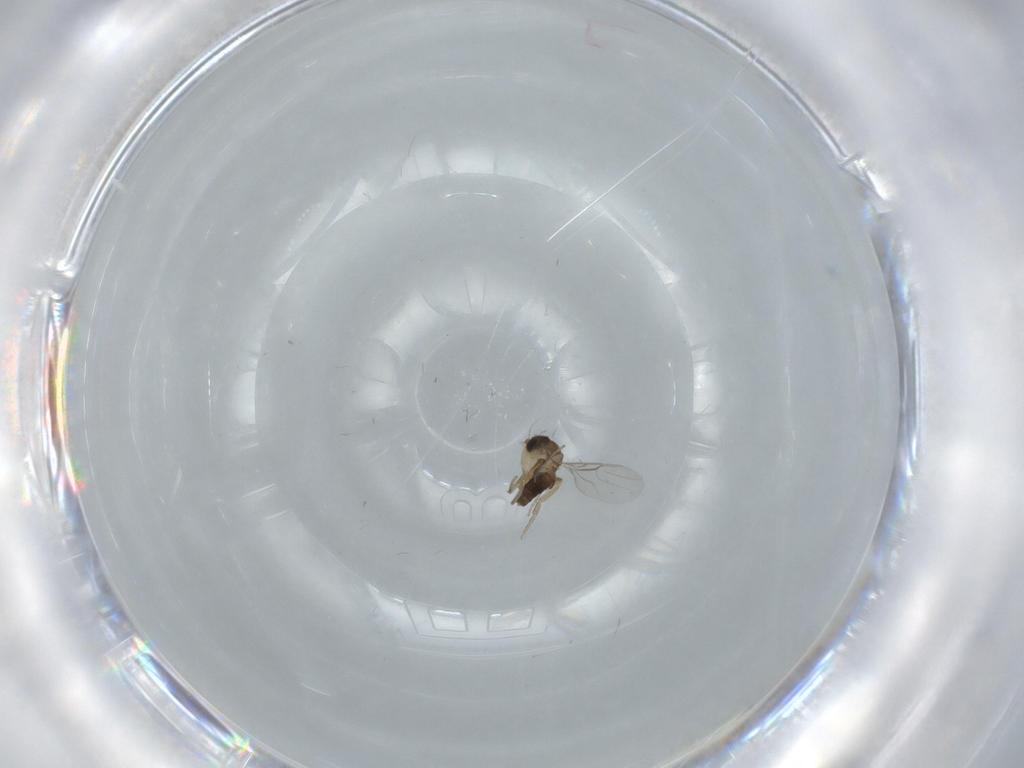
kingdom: Animalia
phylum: Arthropoda
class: Insecta
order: Diptera
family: Phoridae
